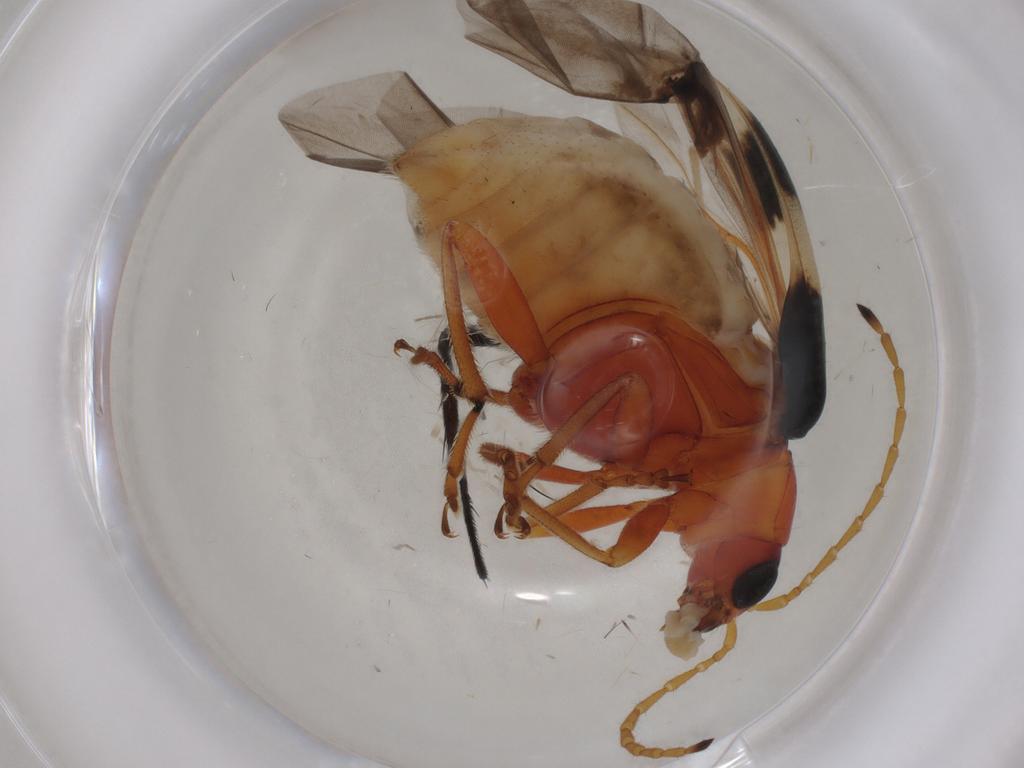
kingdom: Animalia
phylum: Arthropoda
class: Insecta
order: Coleoptera
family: Chrysomelidae
